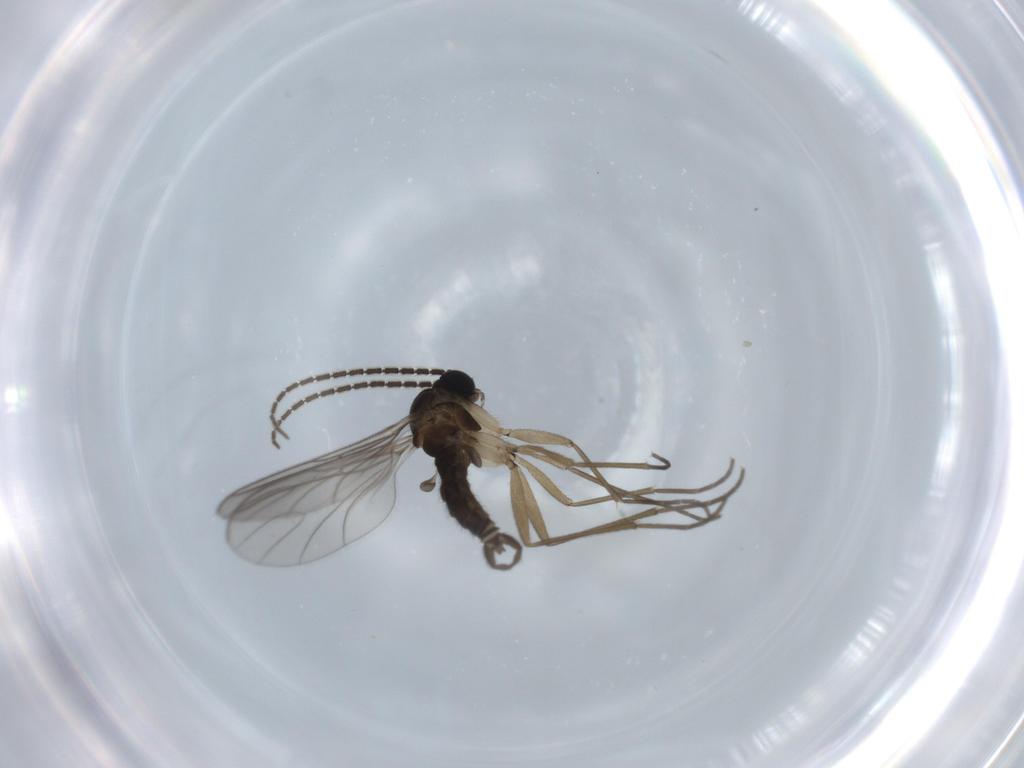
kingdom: Animalia
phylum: Arthropoda
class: Insecta
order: Diptera
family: Sciaridae
